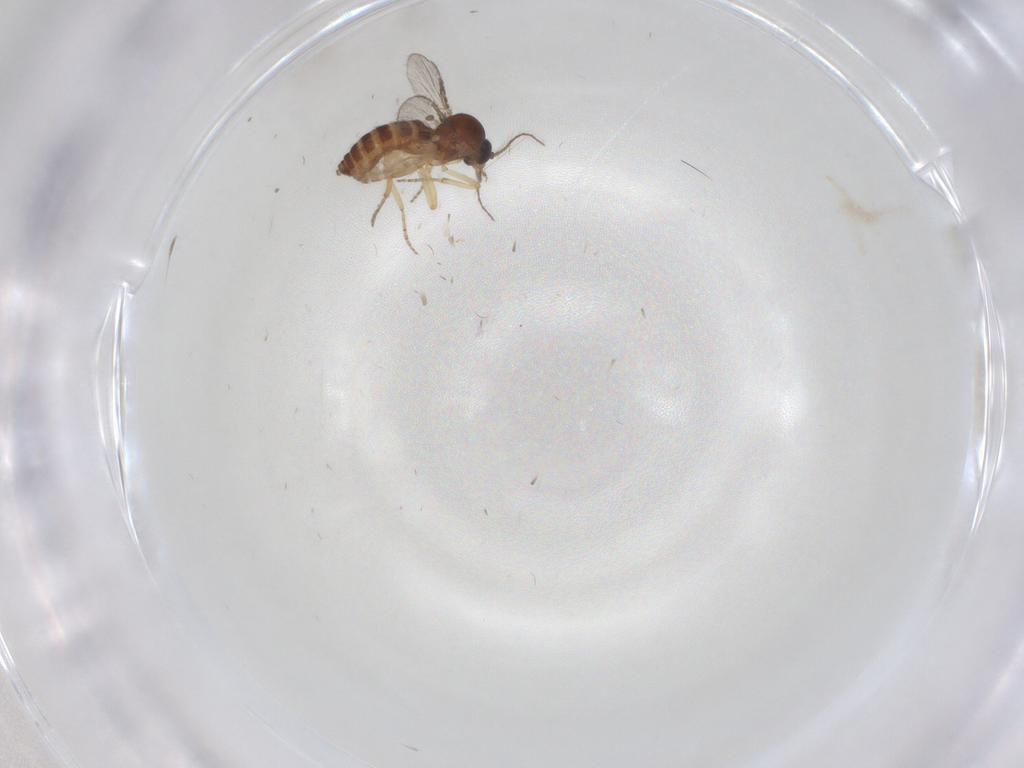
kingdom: Animalia
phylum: Arthropoda
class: Insecta
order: Diptera
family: Ceratopogonidae
